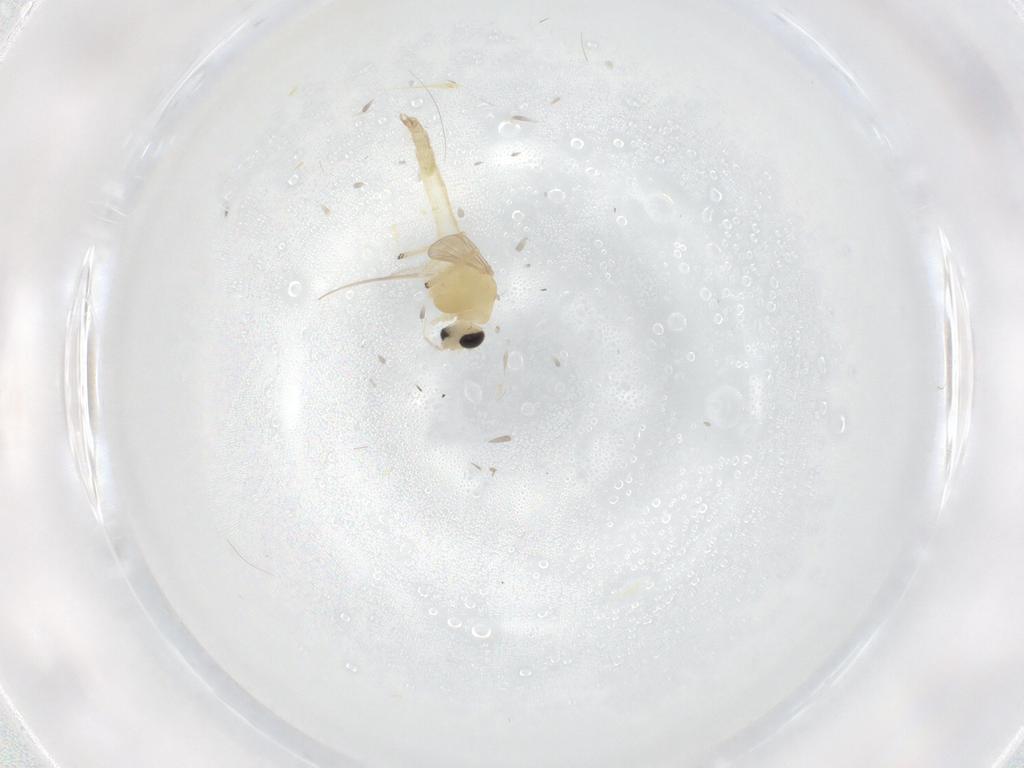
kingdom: Animalia
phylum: Arthropoda
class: Insecta
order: Diptera
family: Chironomidae
